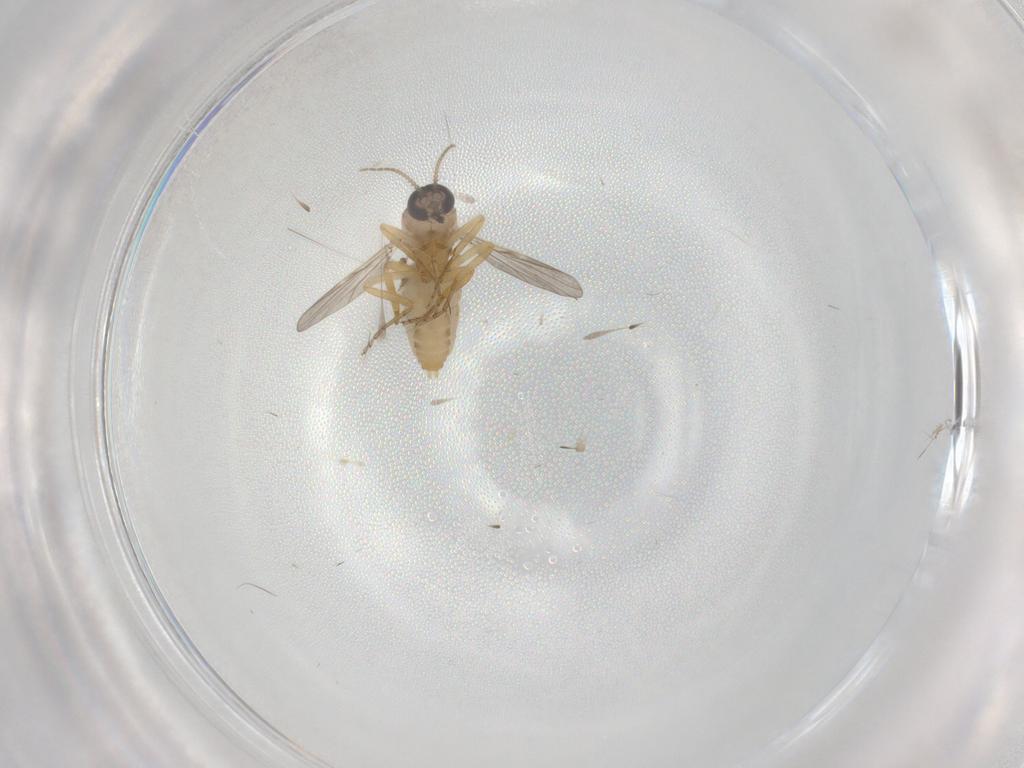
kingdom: Animalia
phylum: Arthropoda
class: Insecta
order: Diptera
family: Ceratopogonidae
